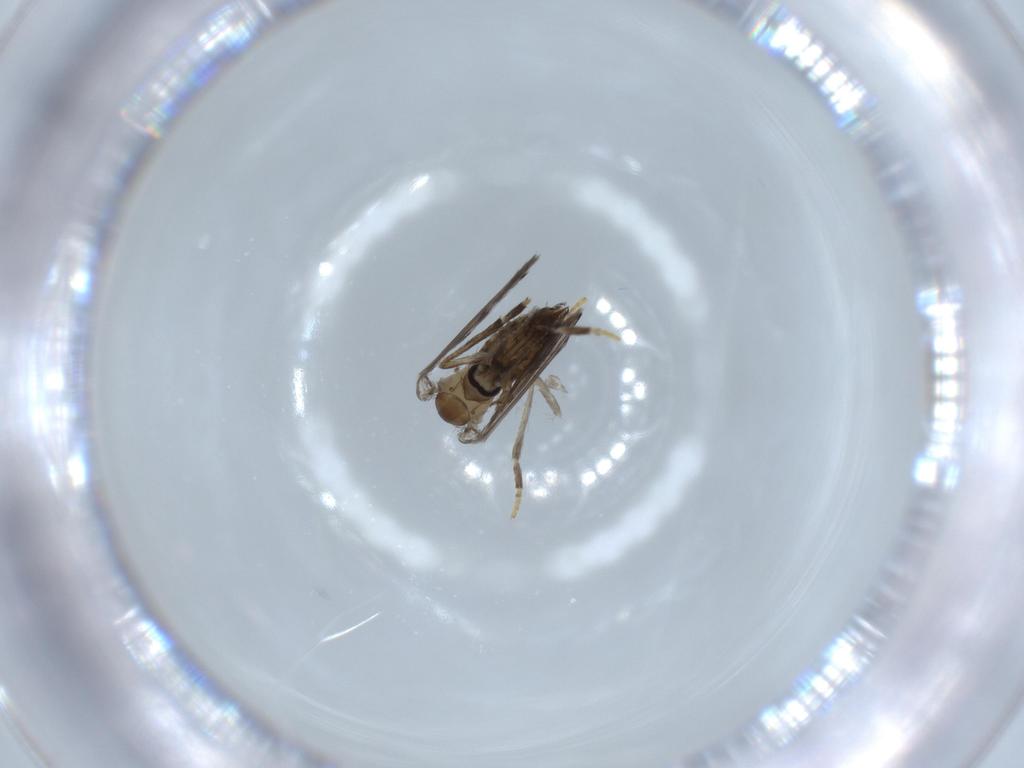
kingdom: Animalia
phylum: Arthropoda
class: Insecta
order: Diptera
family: Psychodidae
